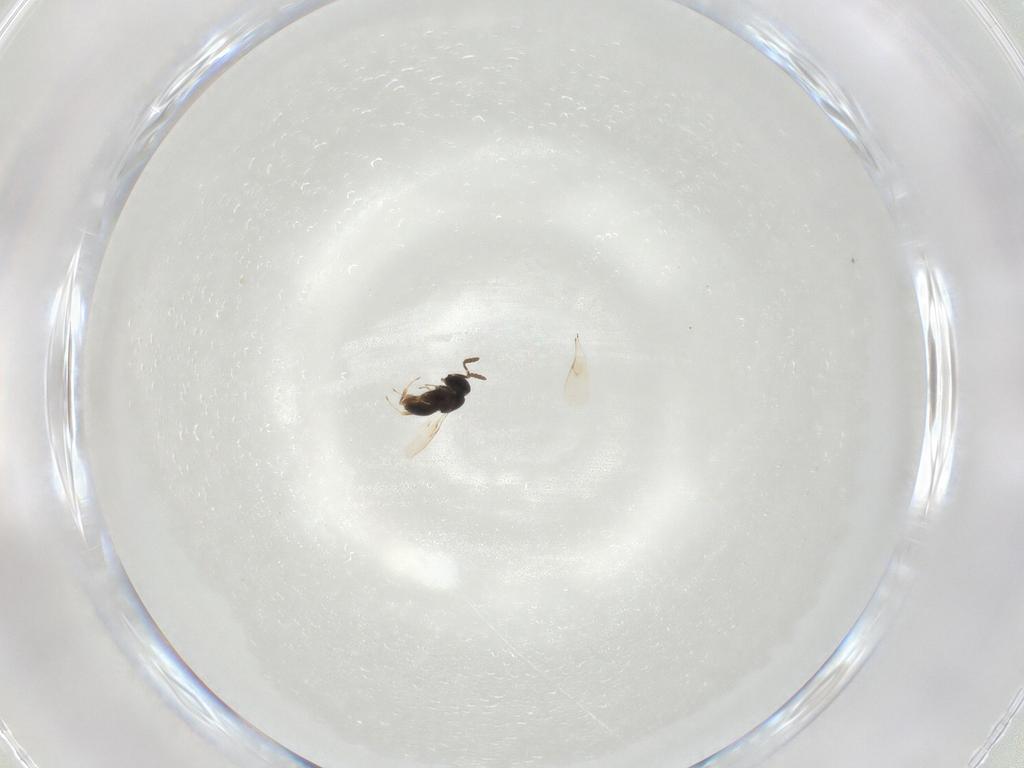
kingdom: Animalia
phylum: Arthropoda
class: Insecta
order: Hymenoptera
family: Scelionidae
